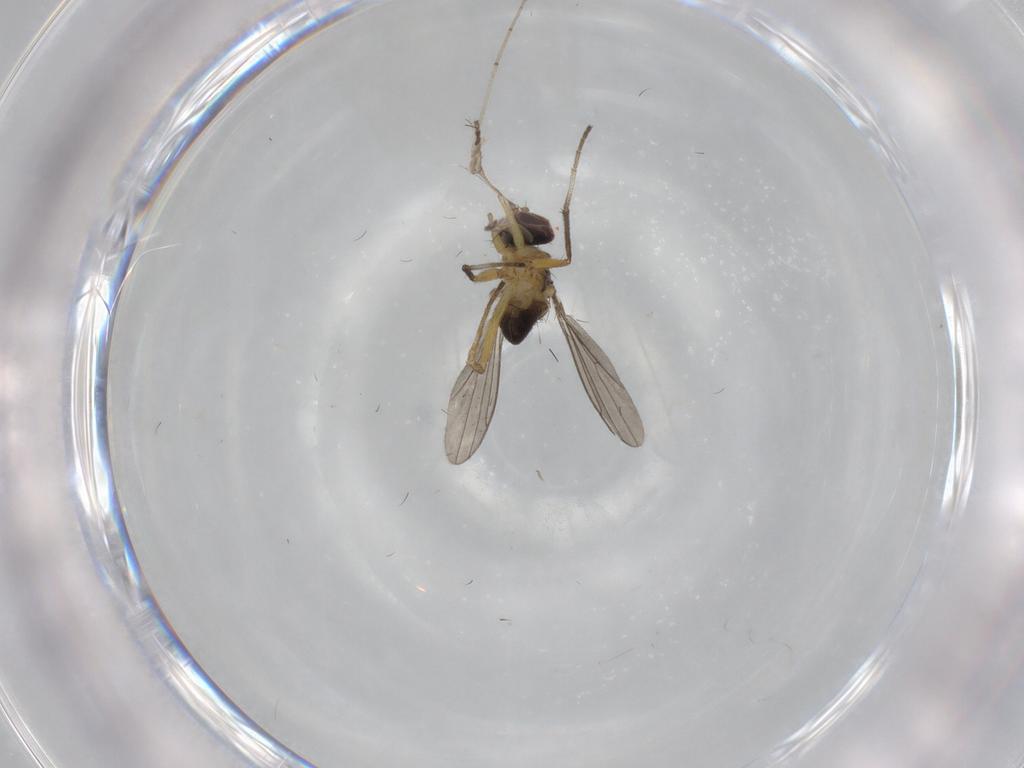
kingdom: Animalia
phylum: Arthropoda
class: Insecta
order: Diptera
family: Dolichopodidae
